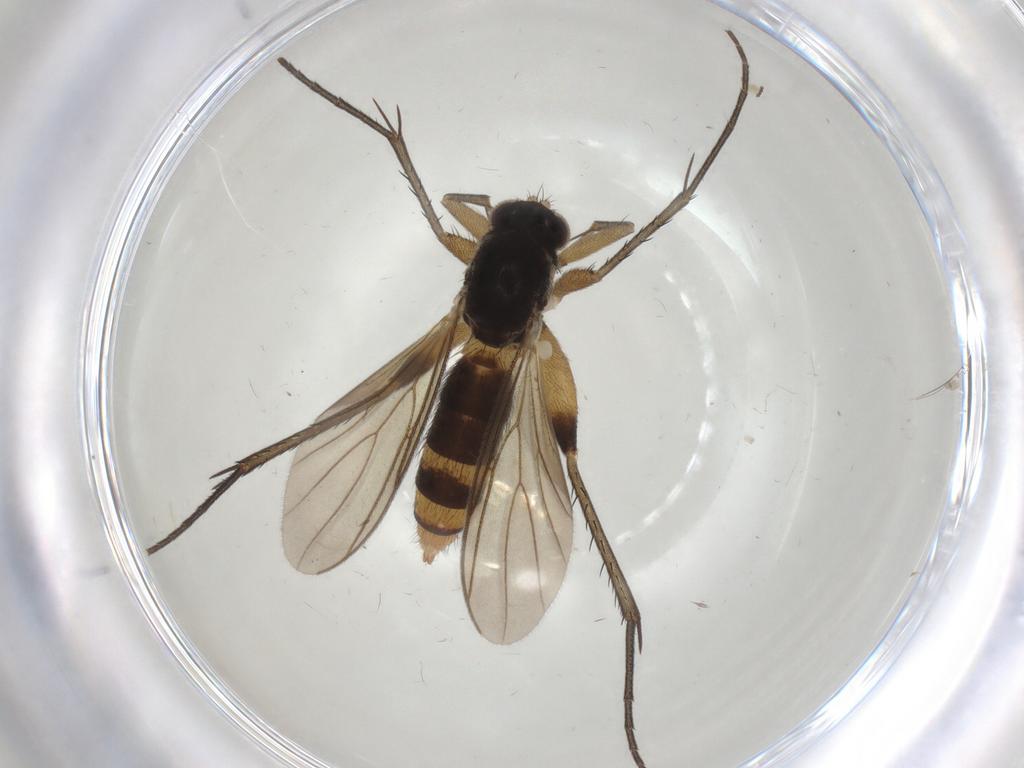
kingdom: Animalia
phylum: Arthropoda
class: Insecta
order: Diptera
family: Mycetophilidae
